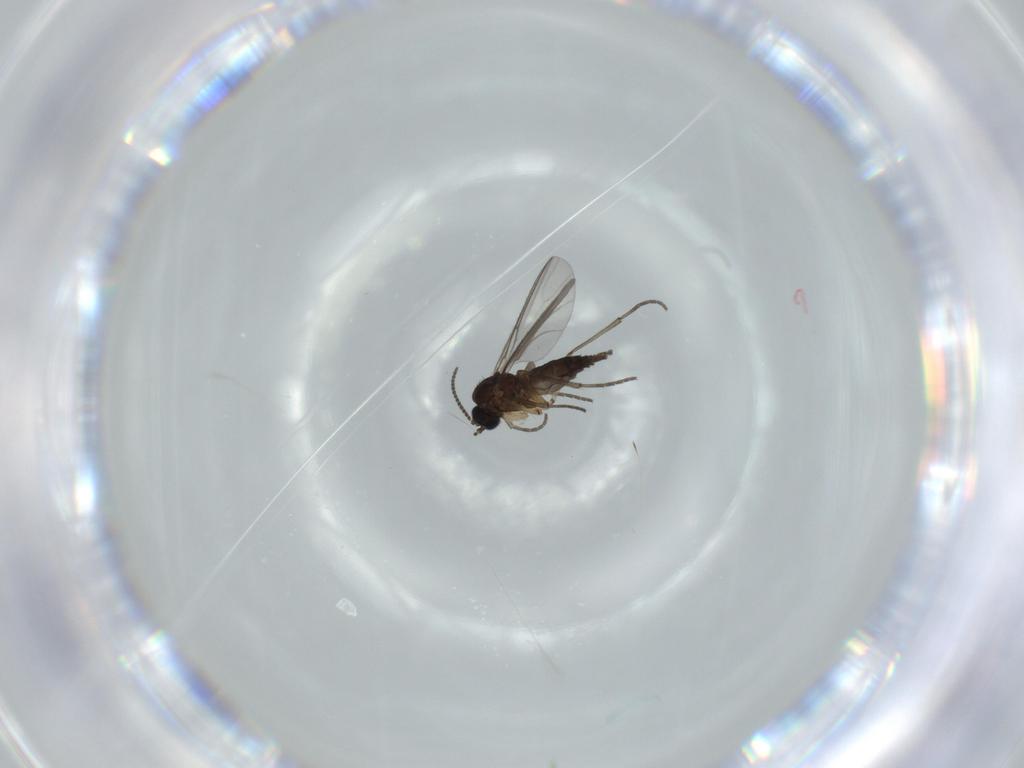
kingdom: Animalia
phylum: Arthropoda
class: Insecta
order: Diptera
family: Sciaridae
